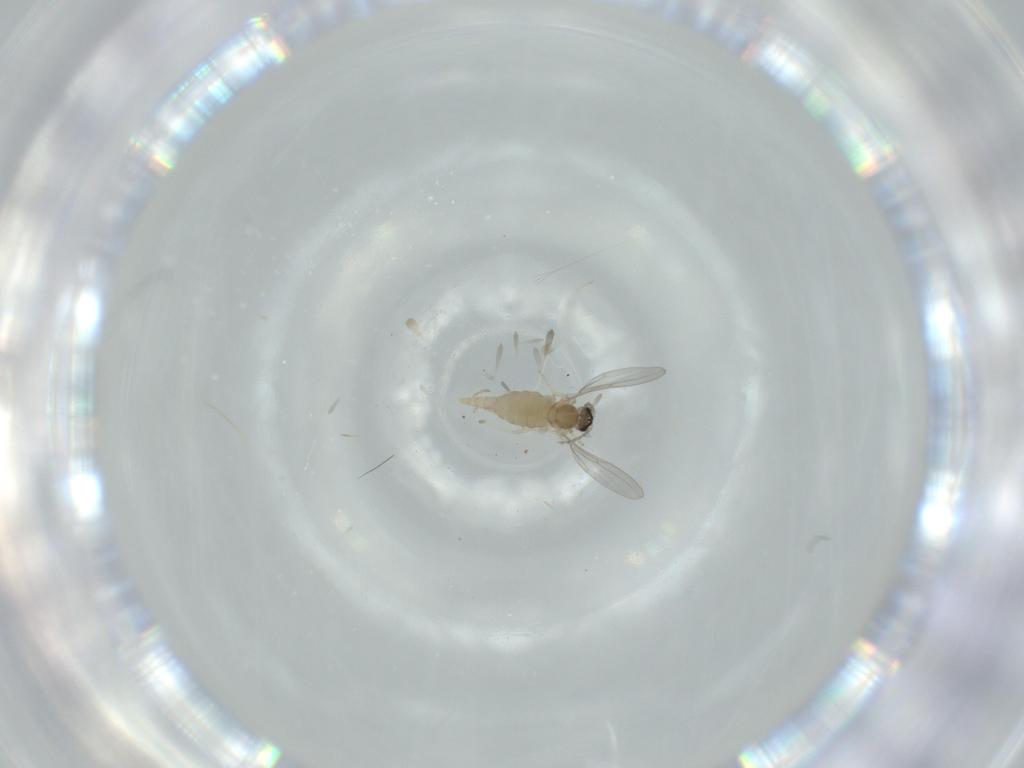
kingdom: Animalia
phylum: Arthropoda
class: Insecta
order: Diptera
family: Cecidomyiidae
